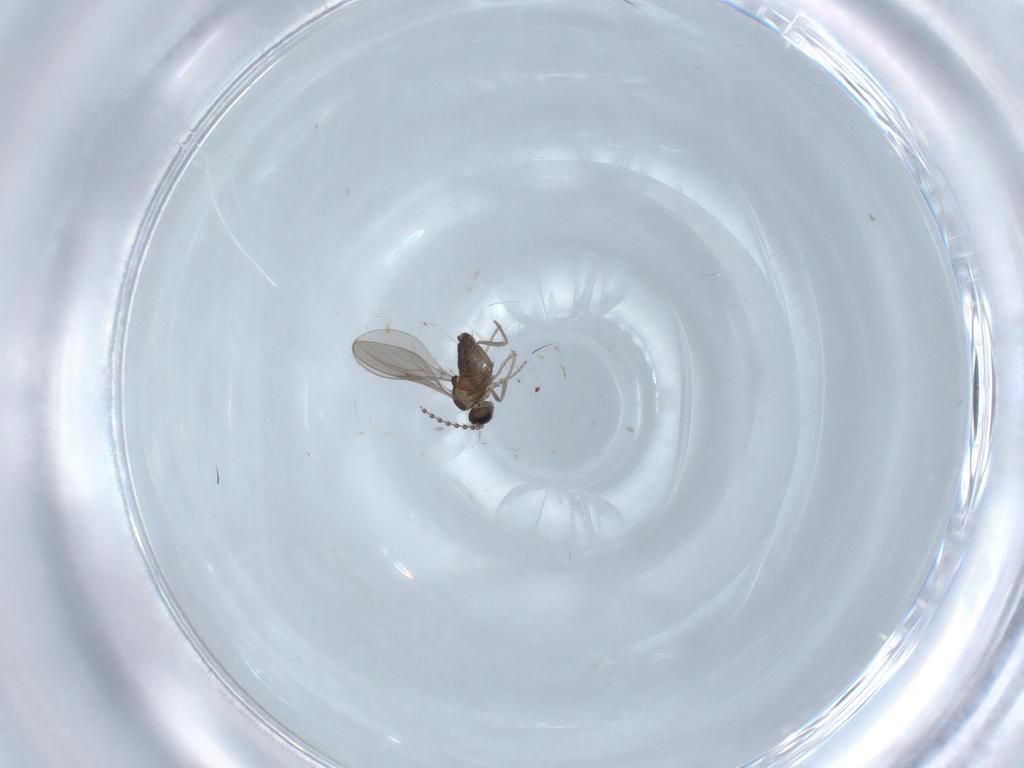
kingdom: Animalia
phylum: Arthropoda
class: Insecta
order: Diptera
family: Cecidomyiidae
